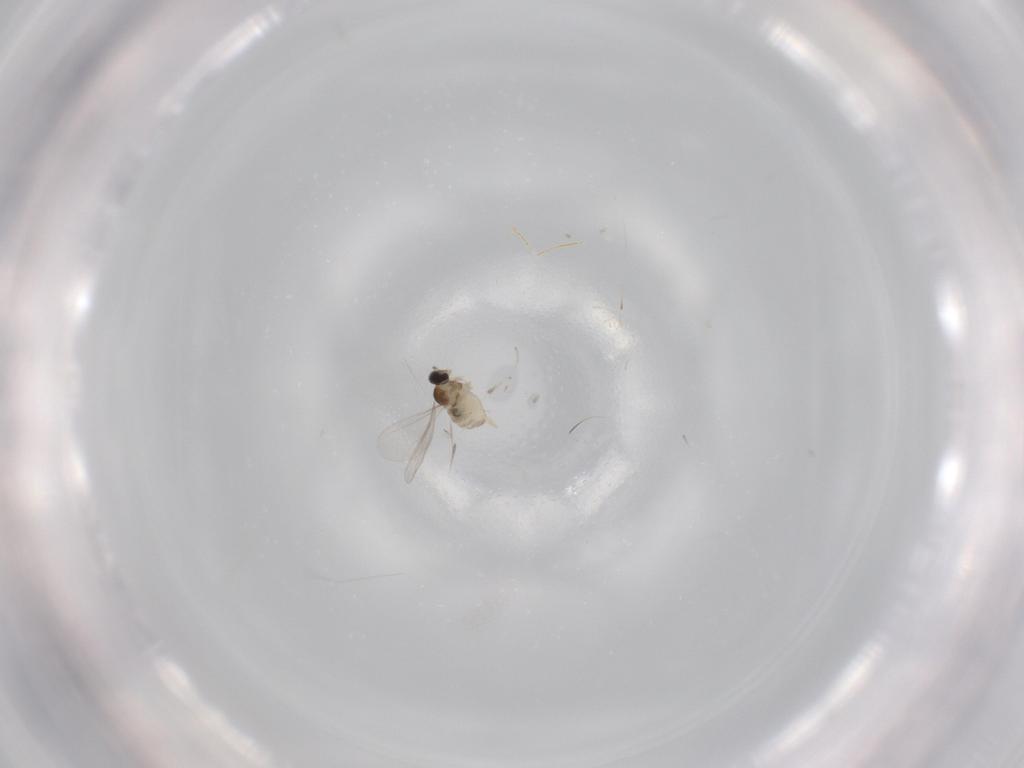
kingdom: Animalia
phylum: Arthropoda
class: Insecta
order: Diptera
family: Cecidomyiidae
